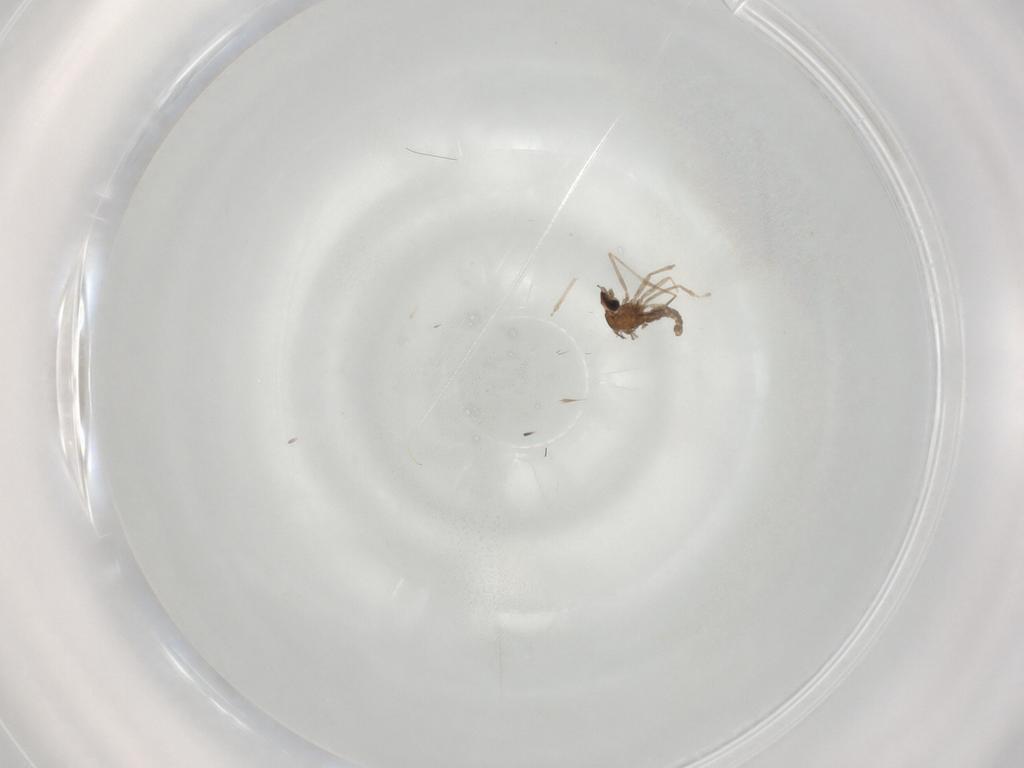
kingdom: Animalia
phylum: Arthropoda
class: Insecta
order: Diptera
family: Cecidomyiidae
